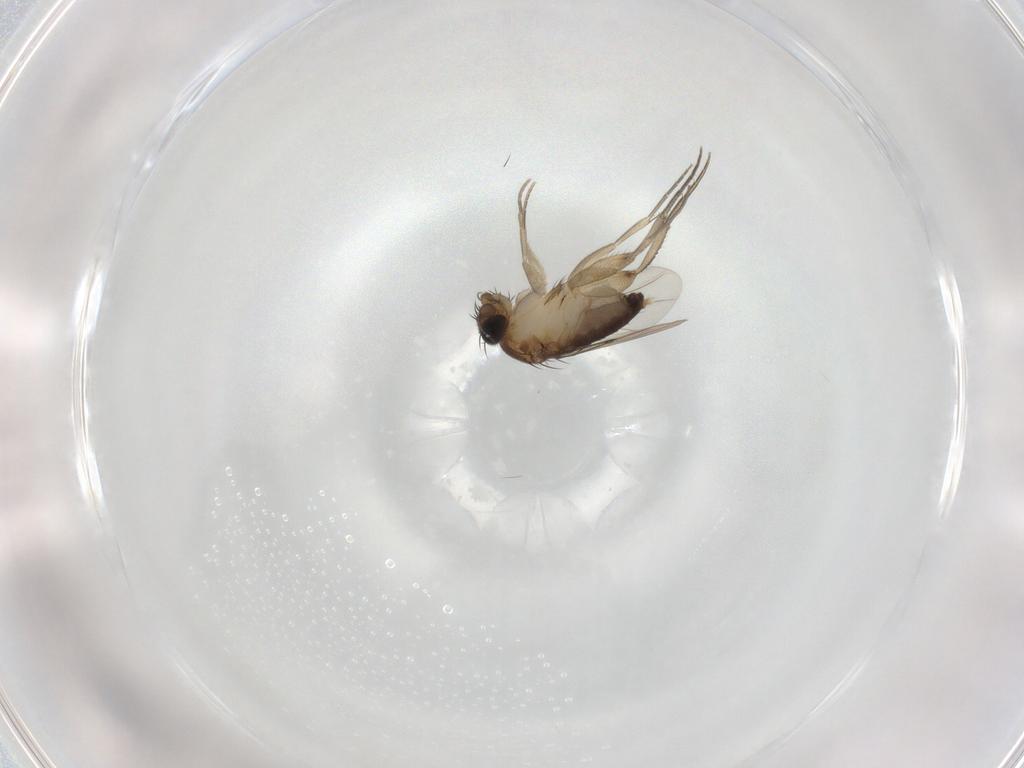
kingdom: Animalia
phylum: Arthropoda
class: Insecta
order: Diptera
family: Phoridae
